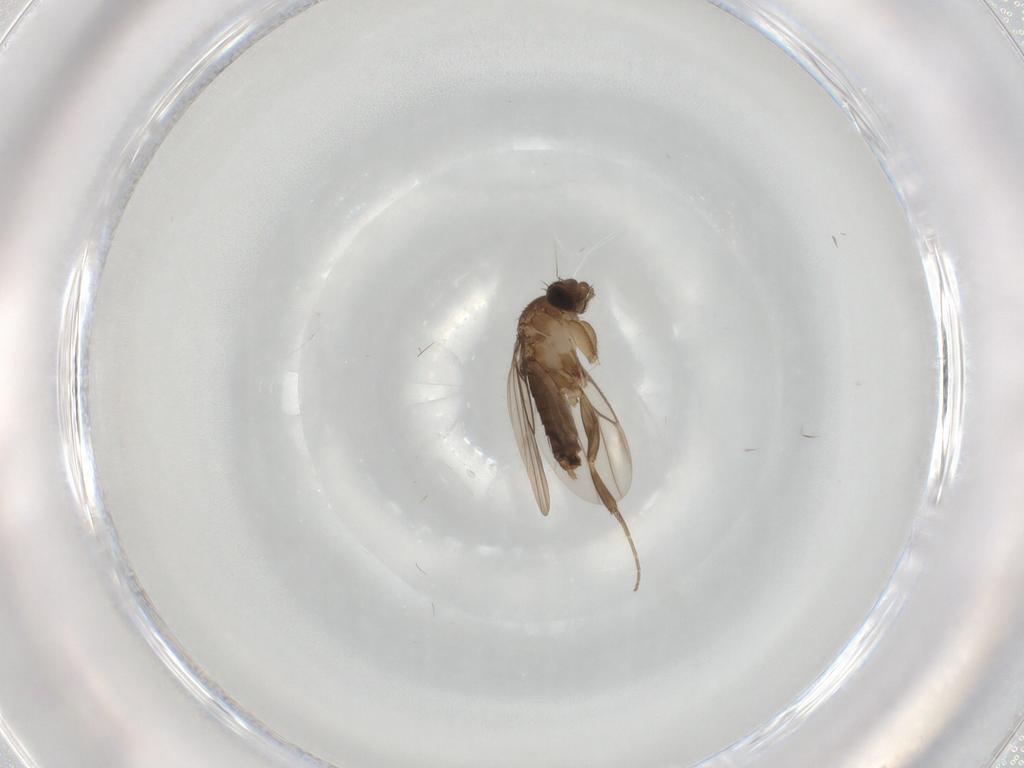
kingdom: Animalia
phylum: Arthropoda
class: Insecta
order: Diptera
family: Phoridae
